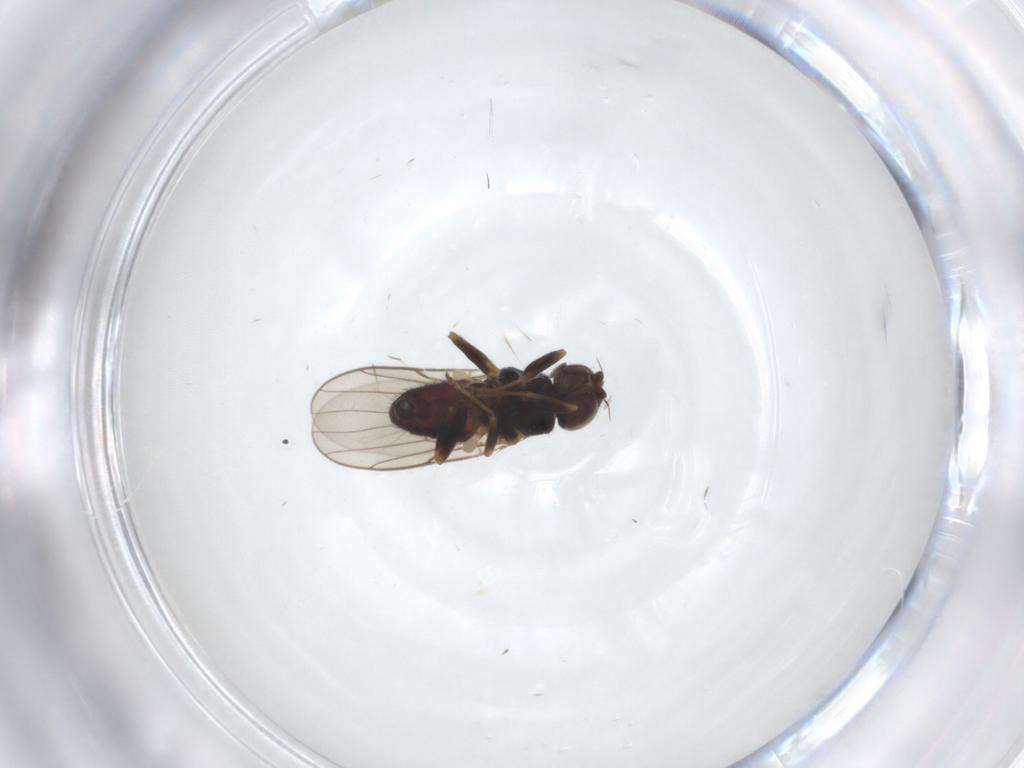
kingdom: Animalia
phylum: Arthropoda
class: Insecta
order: Diptera
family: Chloropidae
